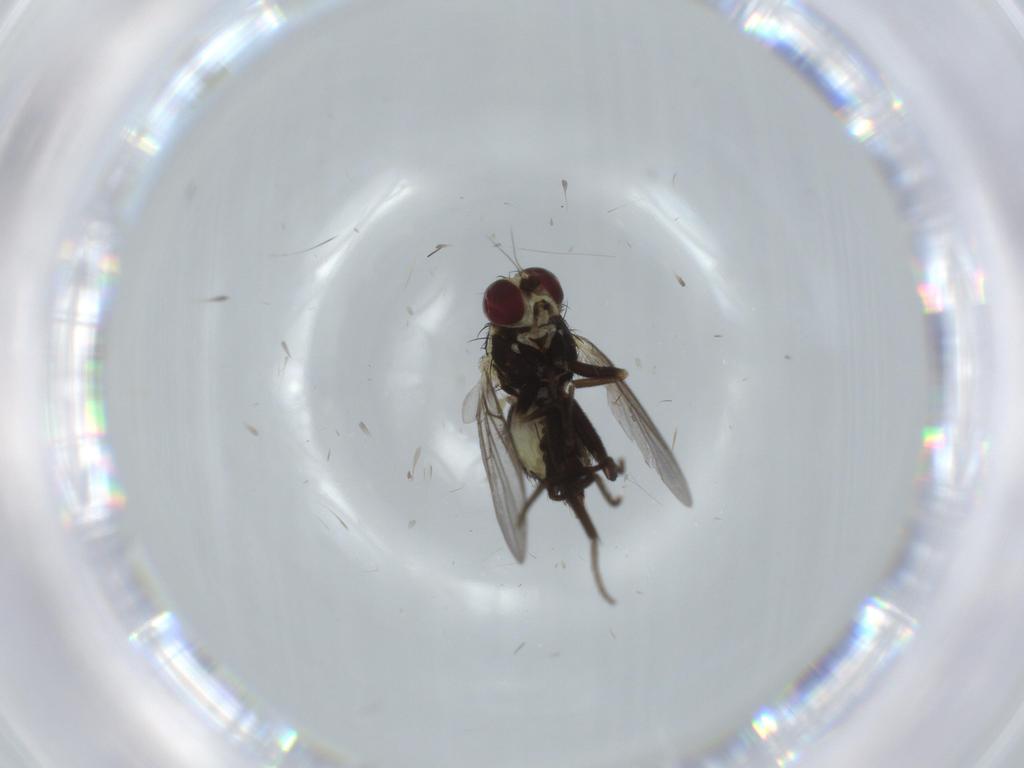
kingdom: Animalia
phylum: Arthropoda
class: Insecta
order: Diptera
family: Agromyzidae
